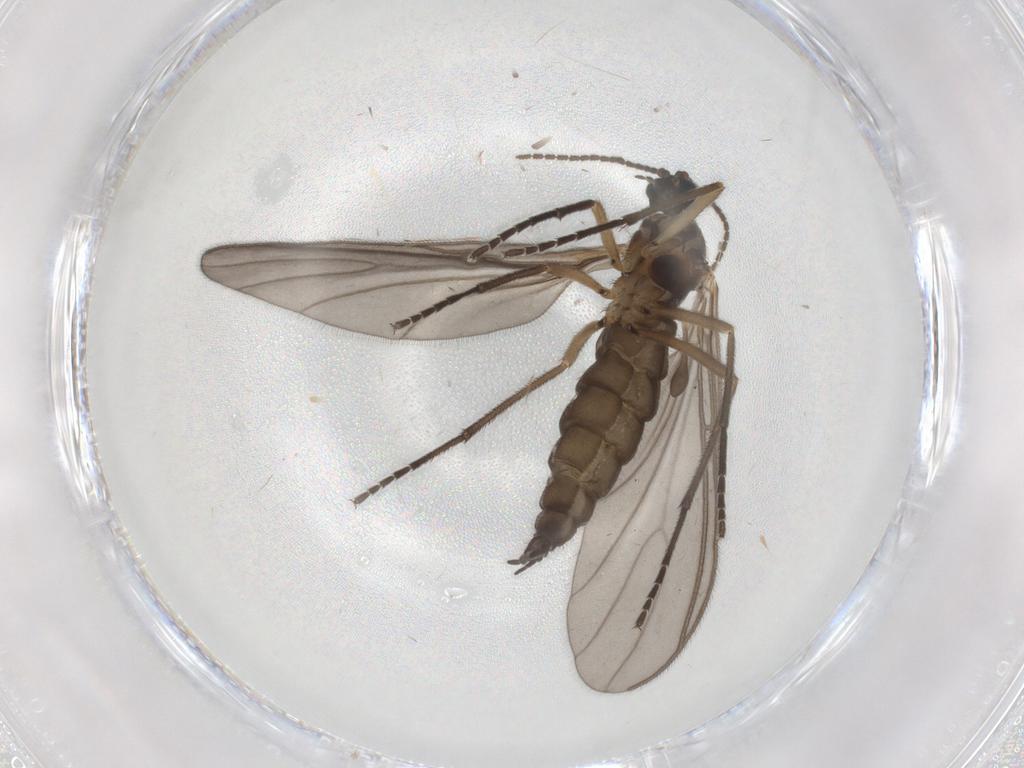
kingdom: Animalia
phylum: Arthropoda
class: Insecta
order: Diptera
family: Sciaridae
